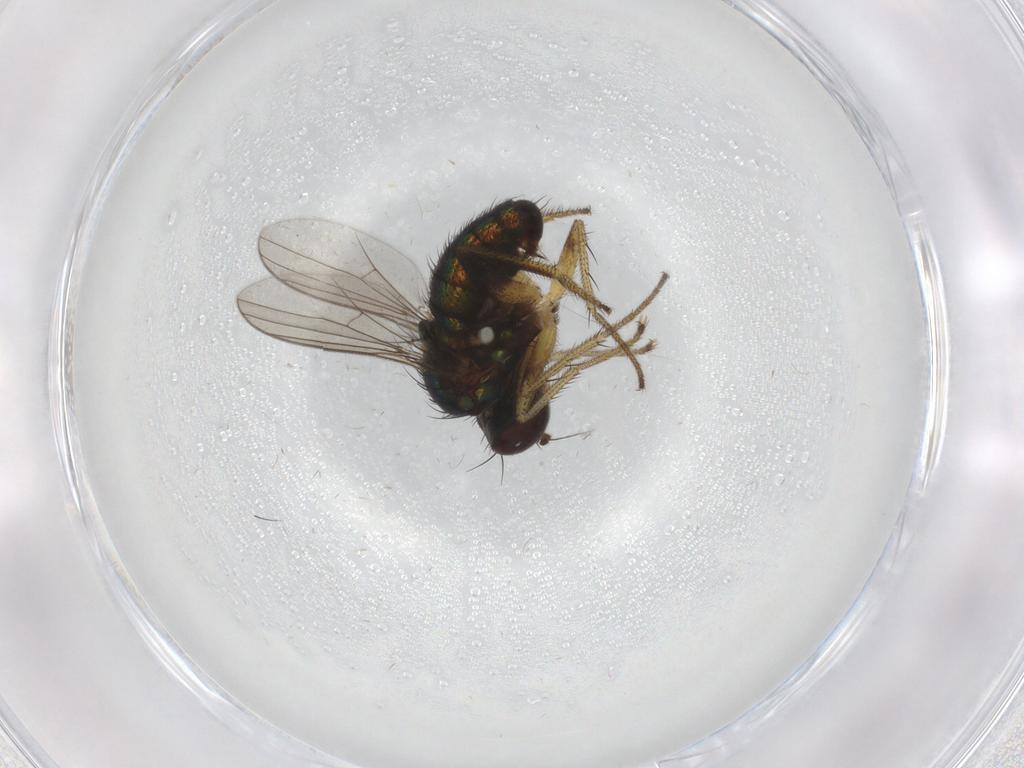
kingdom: Animalia
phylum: Arthropoda
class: Insecta
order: Diptera
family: Dolichopodidae
